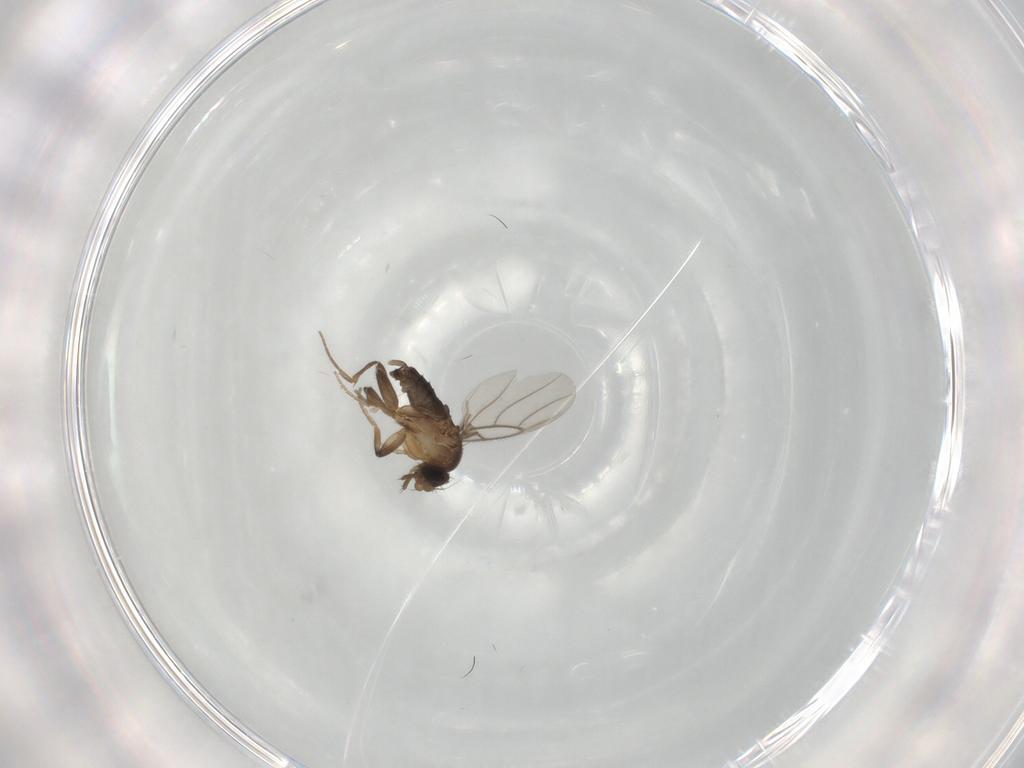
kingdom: Animalia
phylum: Arthropoda
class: Insecta
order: Diptera
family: Phoridae
